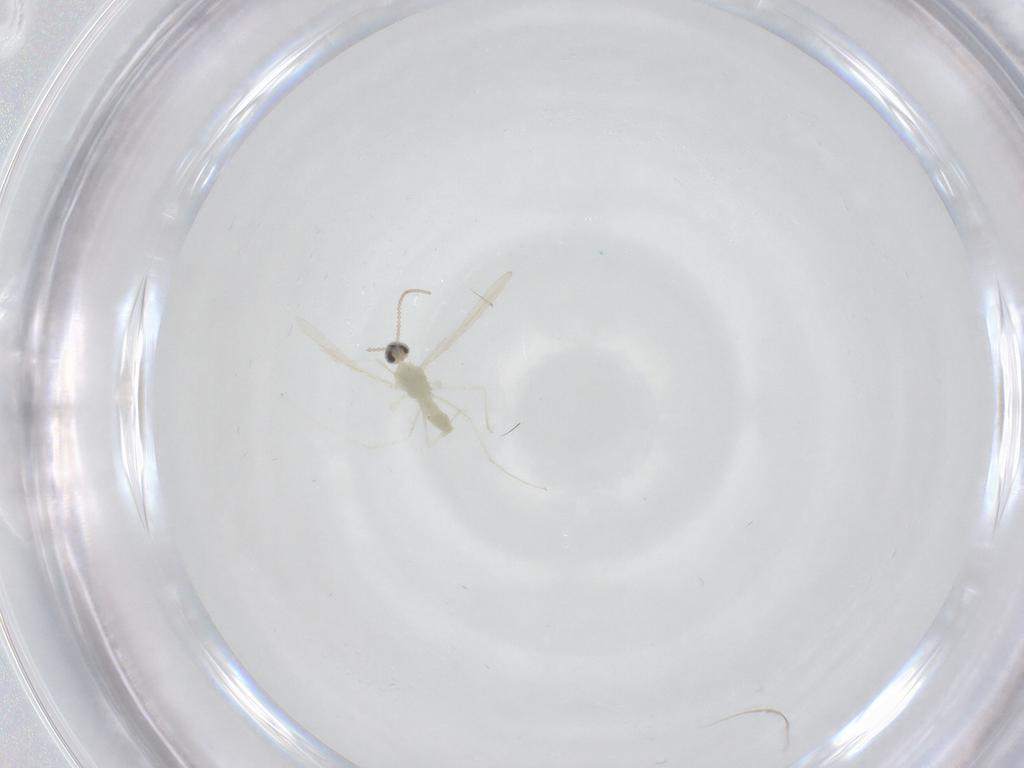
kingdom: Animalia
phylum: Arthropoda
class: Insecta
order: Diptera
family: Cecidomyiidae
